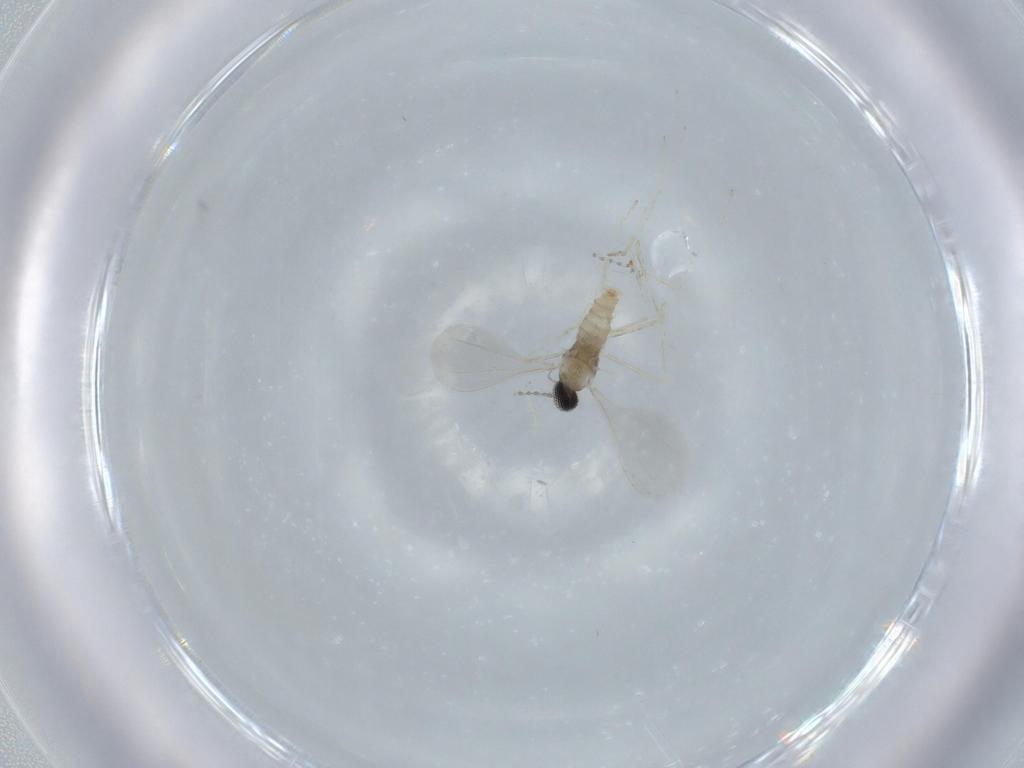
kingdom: Animalia
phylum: Arthropoda
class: Insecta
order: Diptera
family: Cecidomyiidae
